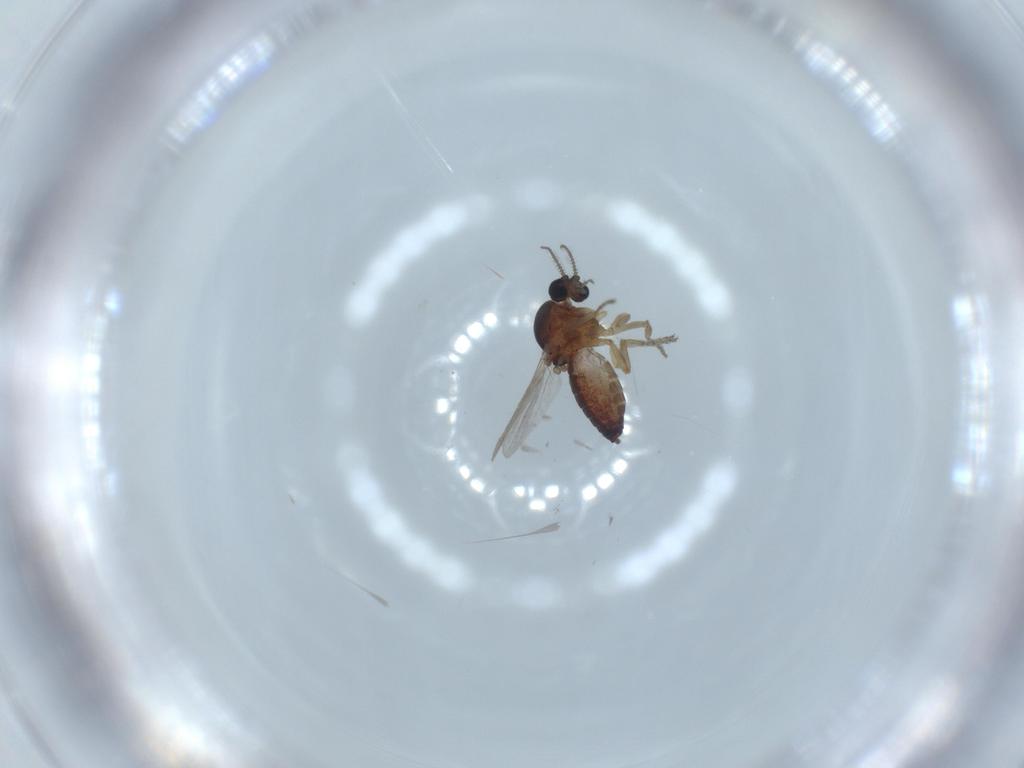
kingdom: Animalia
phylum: Arthropoda
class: Insecta
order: Diptera
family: Ceratopogonidae
